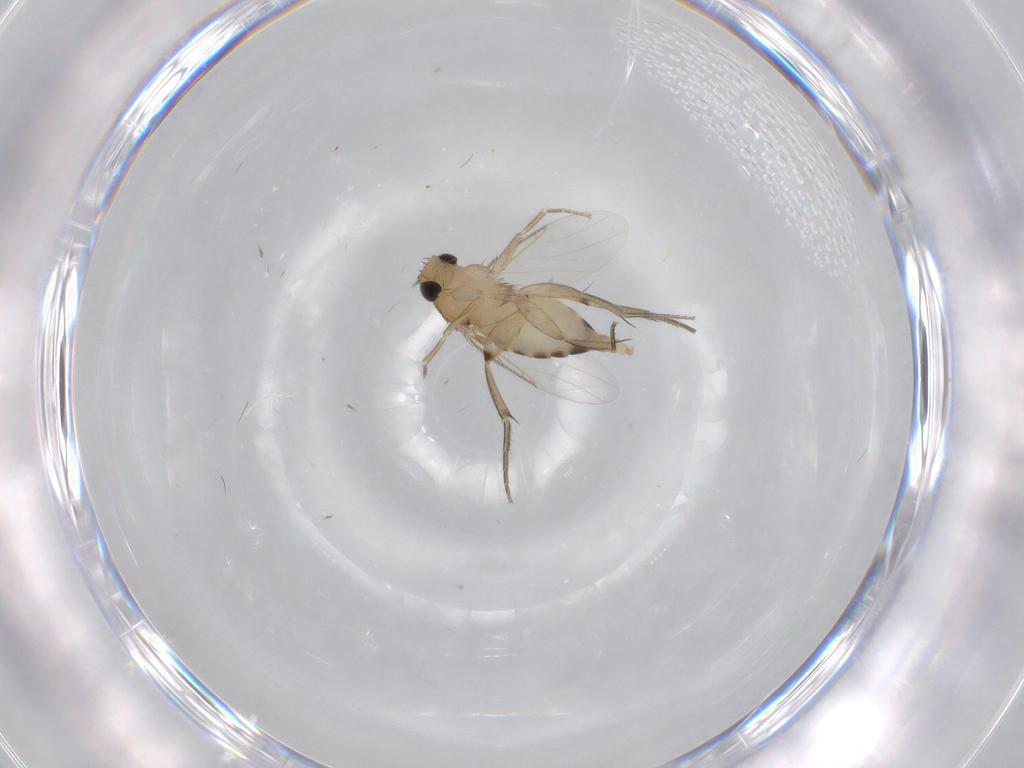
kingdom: Animalia
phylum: Arthropoda
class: Insecta
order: Diptera
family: Phoridae
